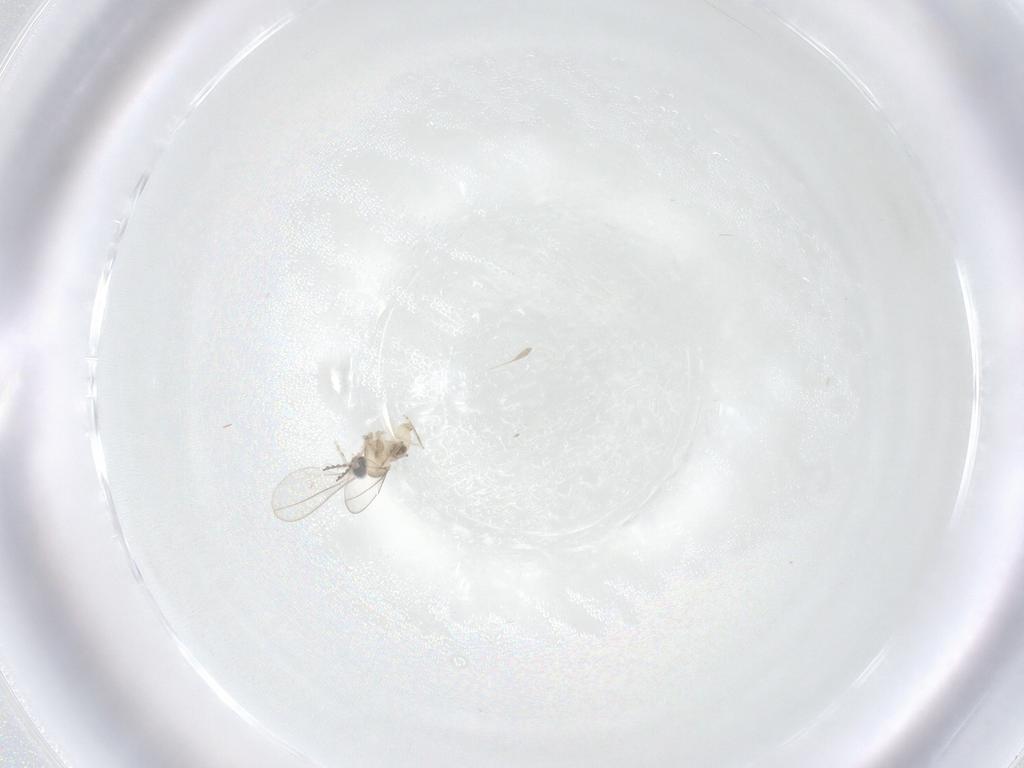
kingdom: Animalia
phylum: Arthropoda
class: Insecta
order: Diptera
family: Cecidomyiidae
